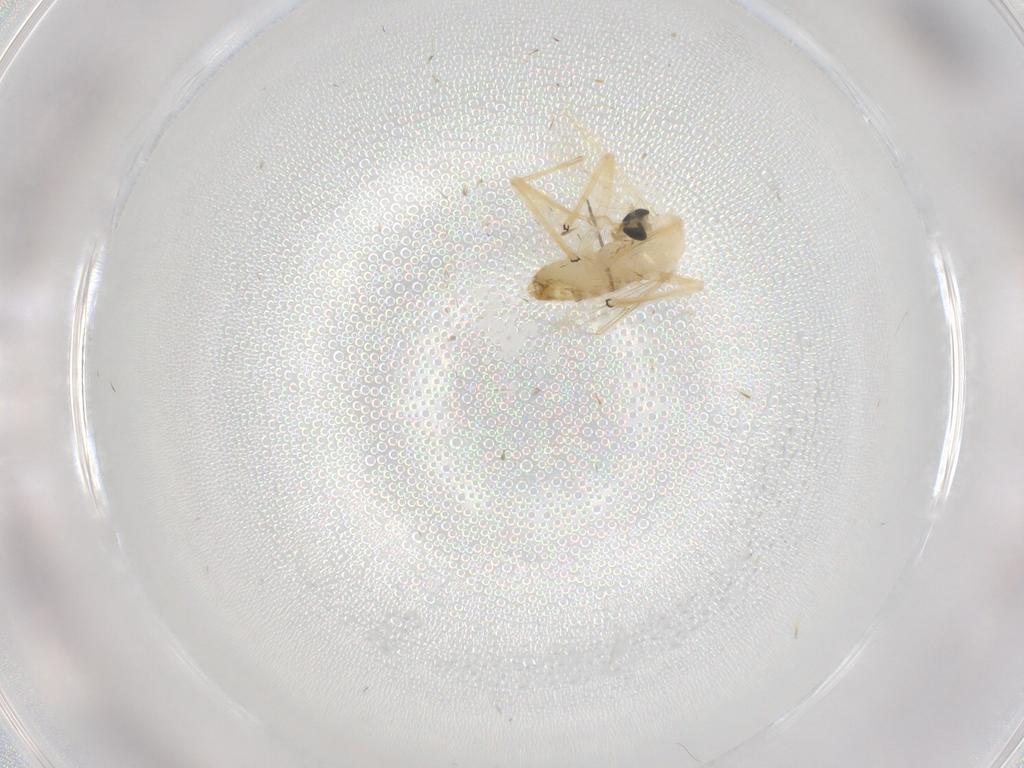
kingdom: Animalia
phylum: Arthropoda
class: Insecta
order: Diptera
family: Chironomidae
